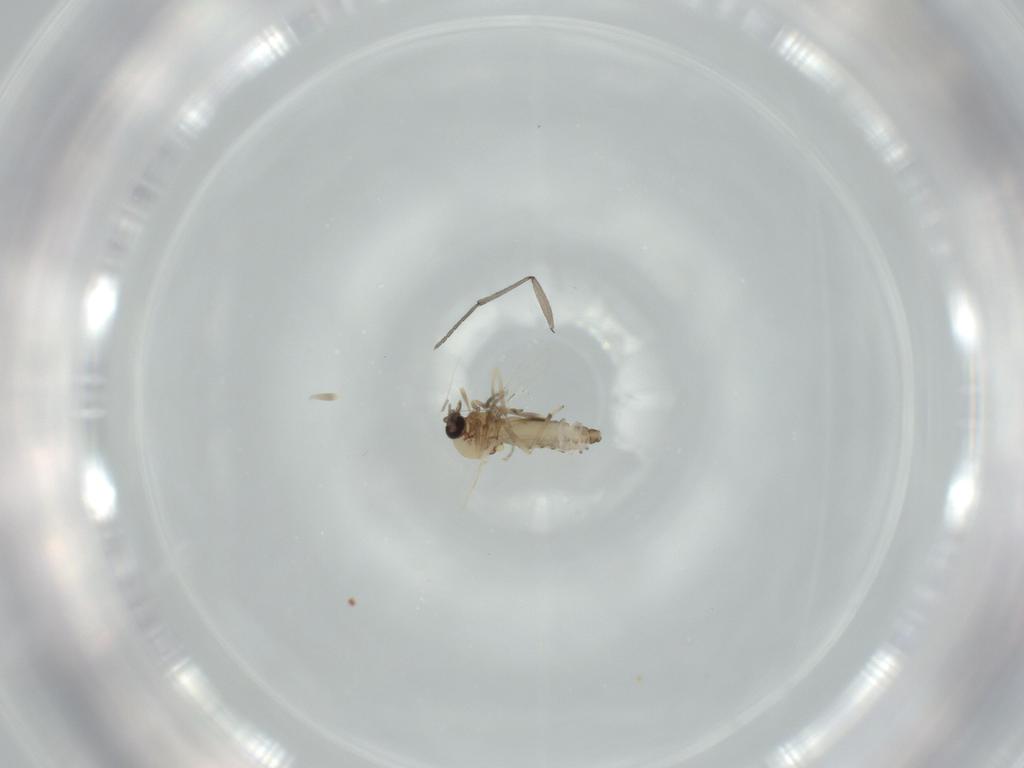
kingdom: Animalia
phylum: Arthropoda
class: Insecta
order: Diptera
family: Sciaridae
